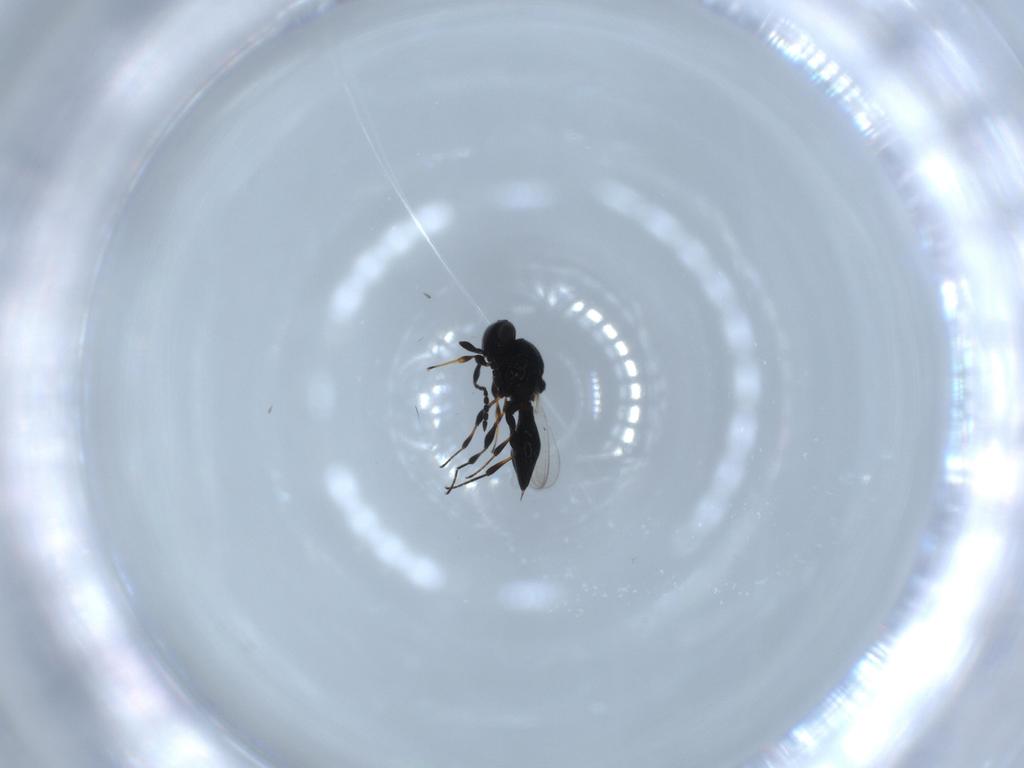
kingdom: Animalia
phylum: Arthropoda
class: Insecta
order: Hymenoptera
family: Platygastridae
